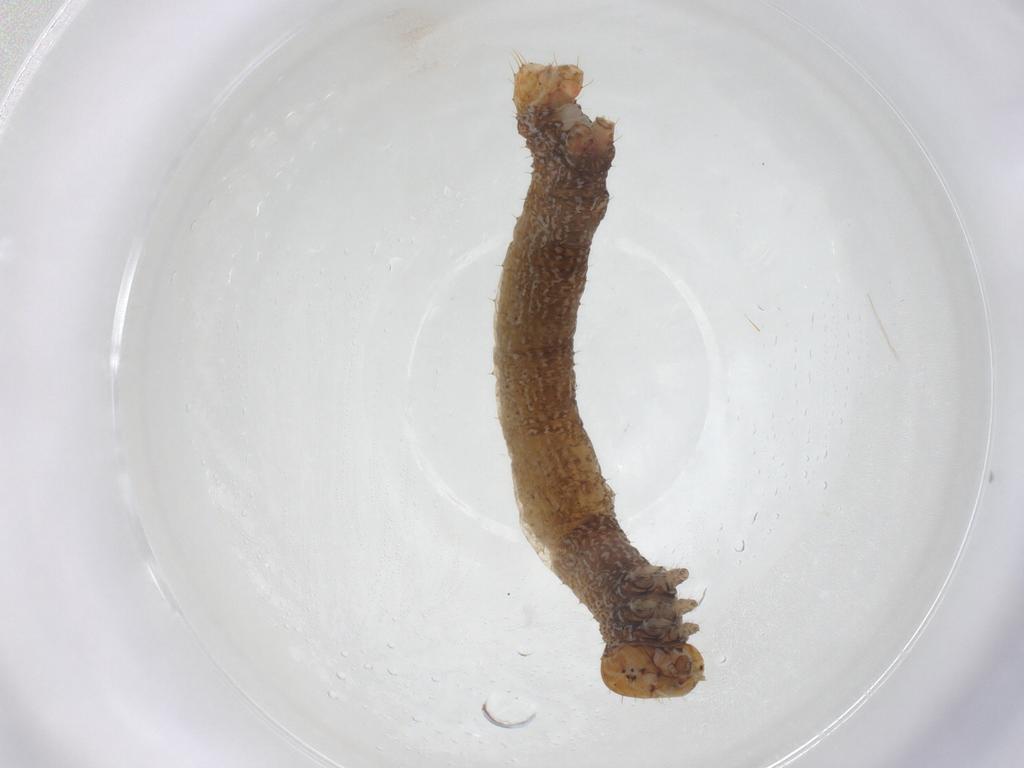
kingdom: Animalia
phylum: Arthropoda
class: Insecta
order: Lepidoptera
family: Geometridae
